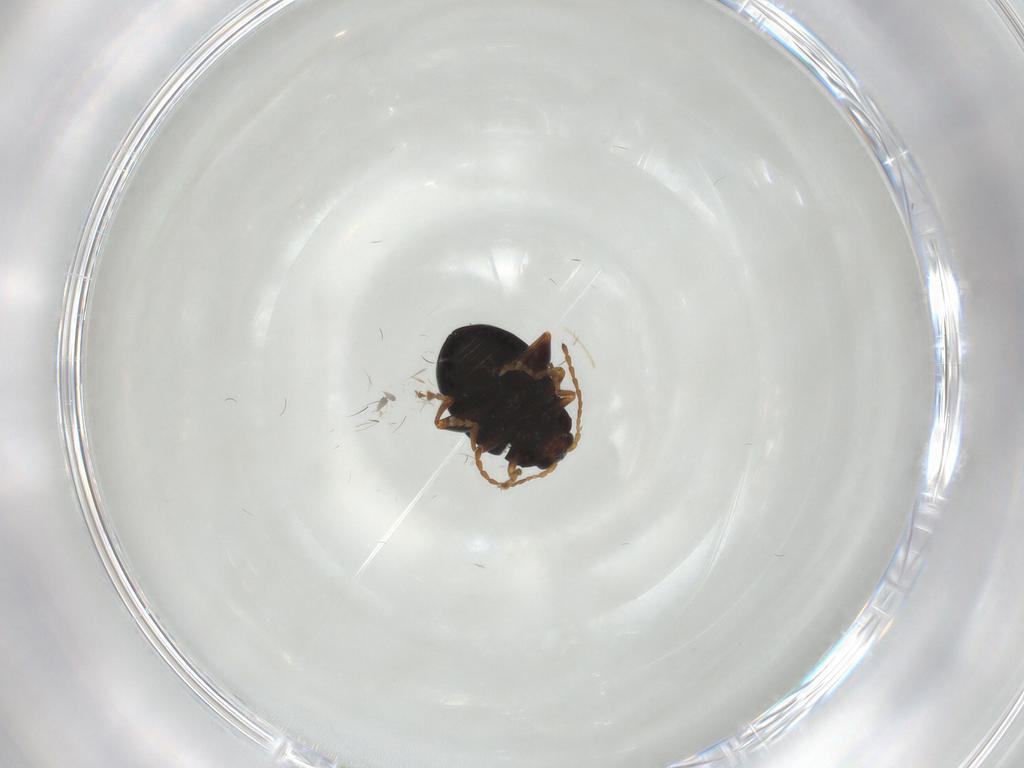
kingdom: Animalia
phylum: Arthropoda
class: Insecta
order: Coleoptera
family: Chrysomelidae
